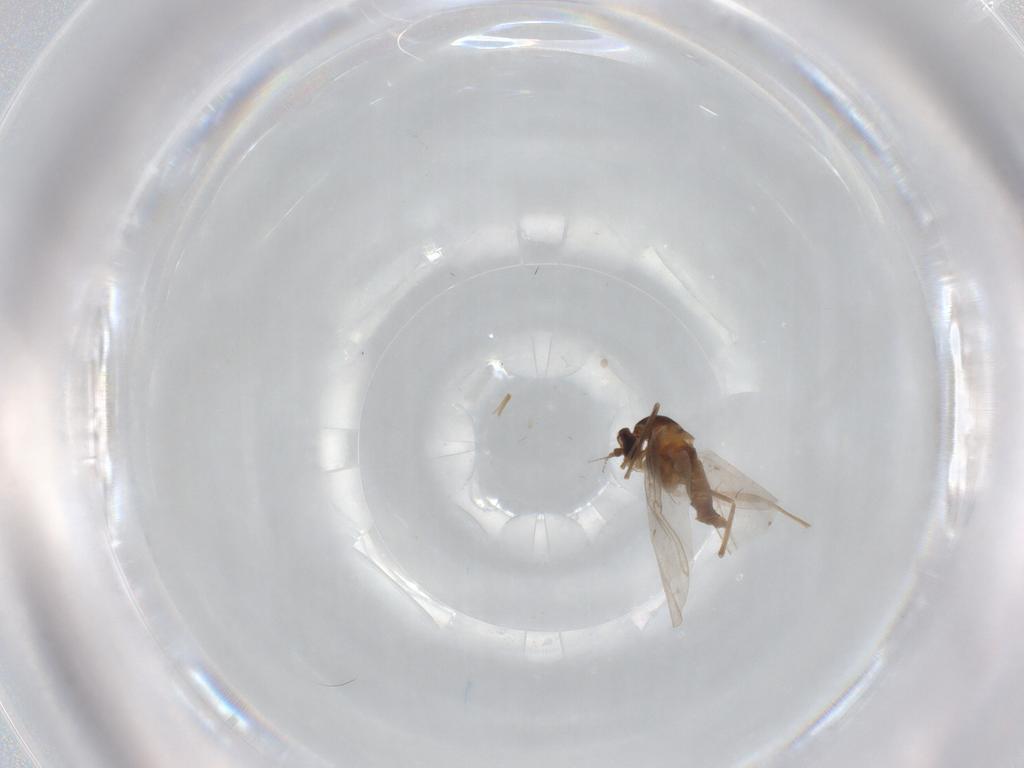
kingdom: Animalia
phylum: Arthropoda
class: Insecta
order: Diptera
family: Cecidomyiidae
